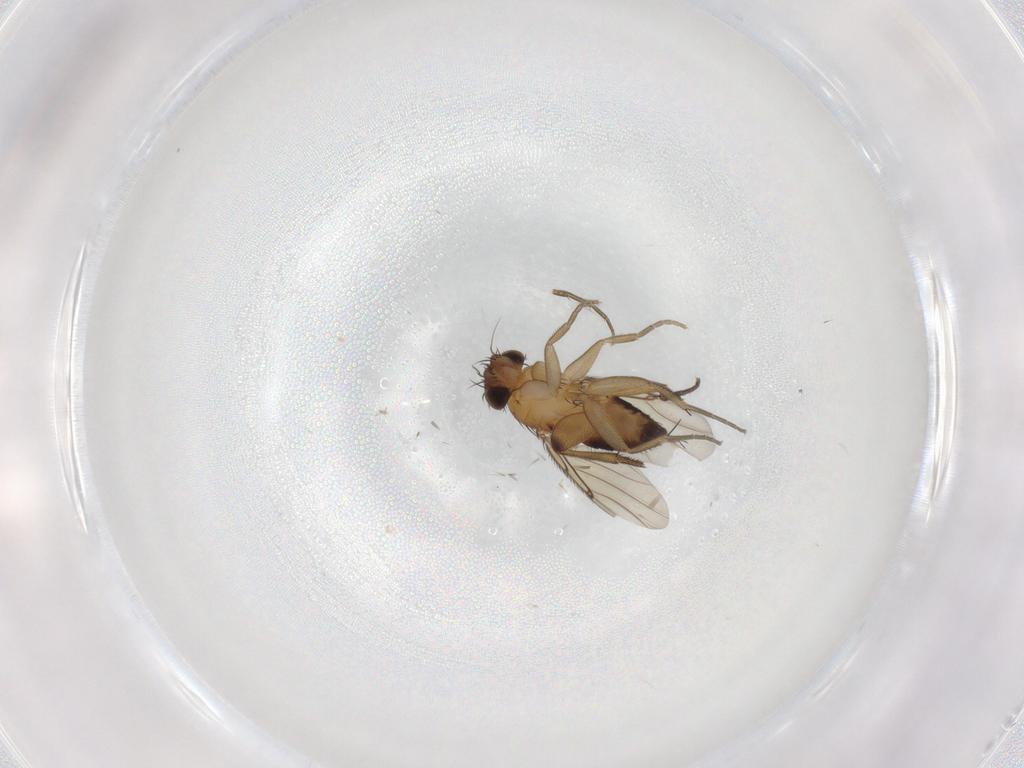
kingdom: Animalia
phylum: Arthropoda
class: Insecta
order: Diptera
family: Phoridae
